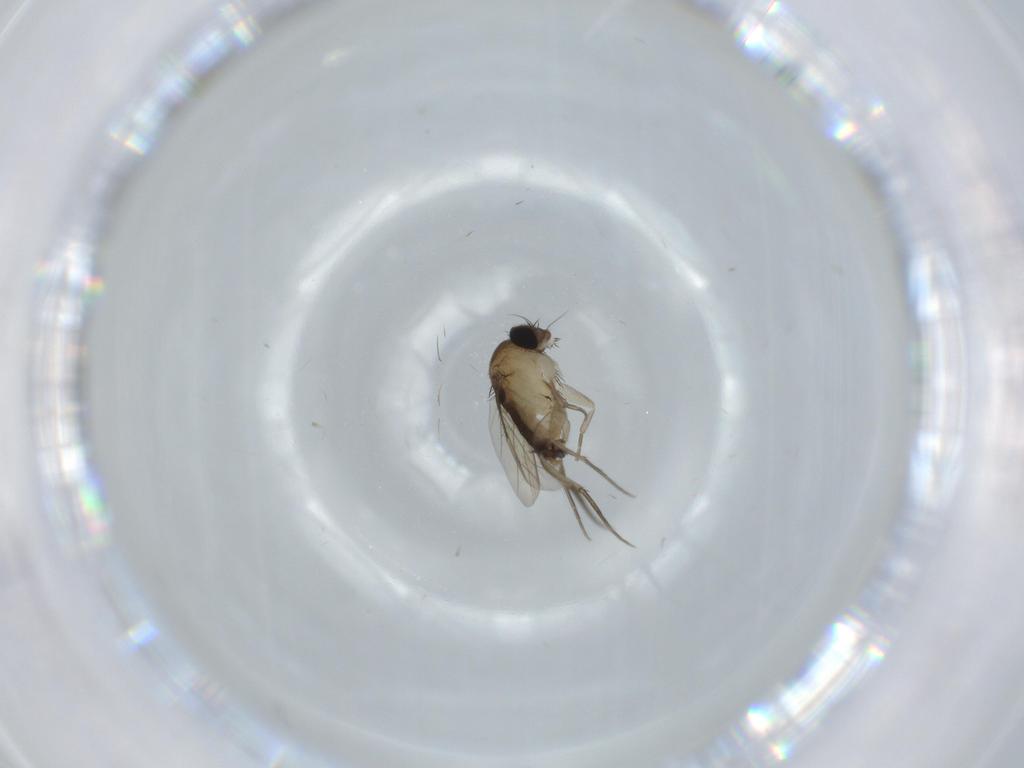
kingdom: Animalia
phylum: Arthropoda
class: Insecta
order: Diptera
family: Phoridae
